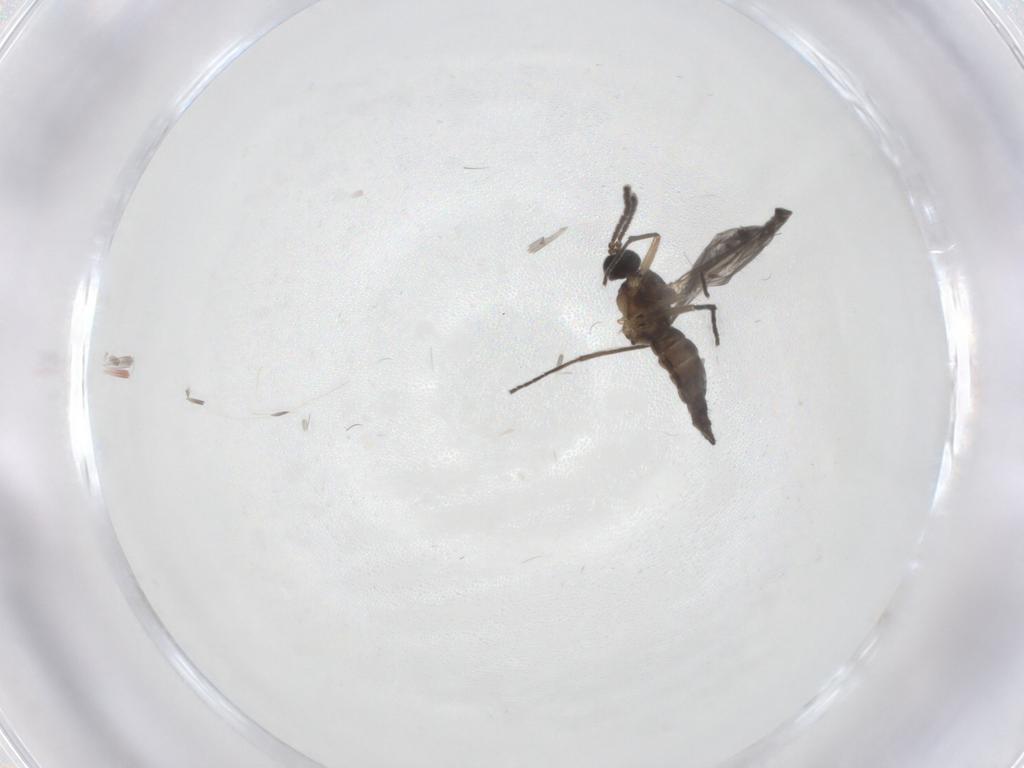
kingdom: Animalia
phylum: Arthropoda
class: Insecta
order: Diptera
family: Sciaridae
